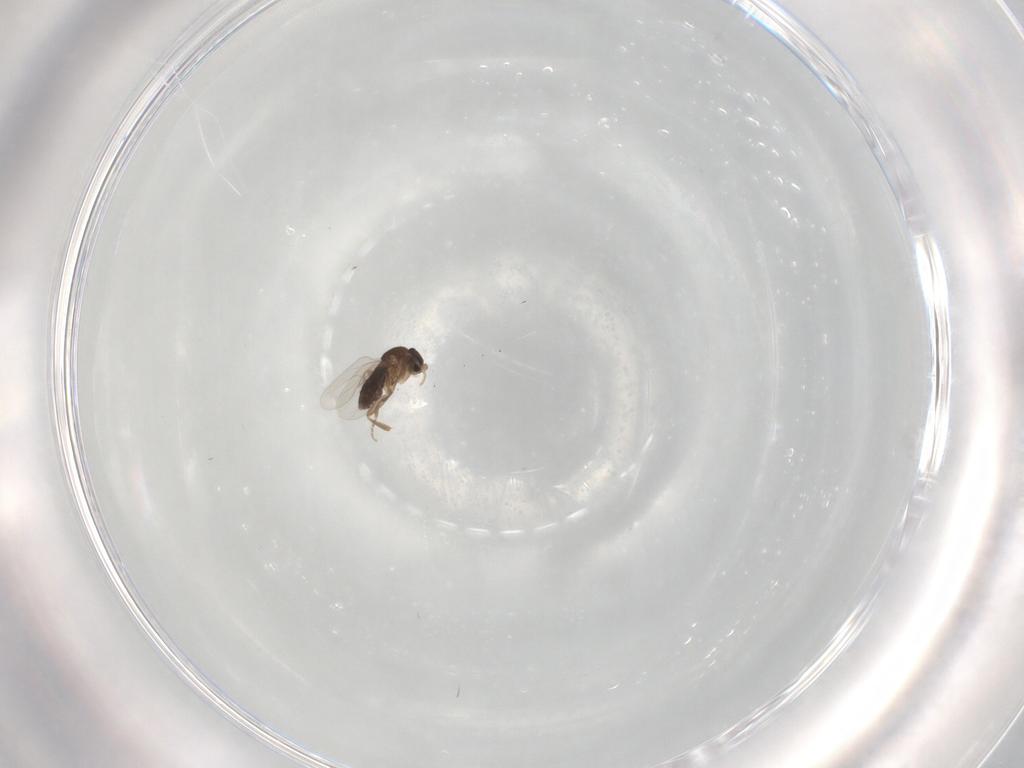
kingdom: Animalia
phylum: Arthropoda
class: Insecta
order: Diptera
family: Phoridae
